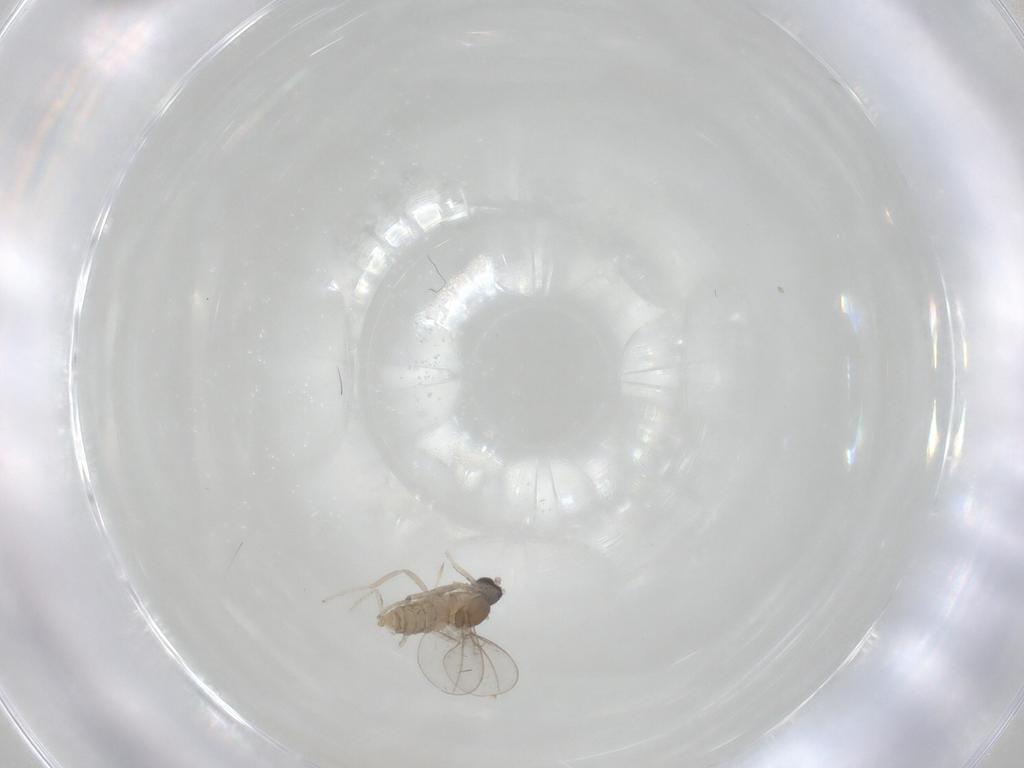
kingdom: Animalia
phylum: Arthropoda
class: Insecta
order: Diptera
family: Cecidomyiidae
